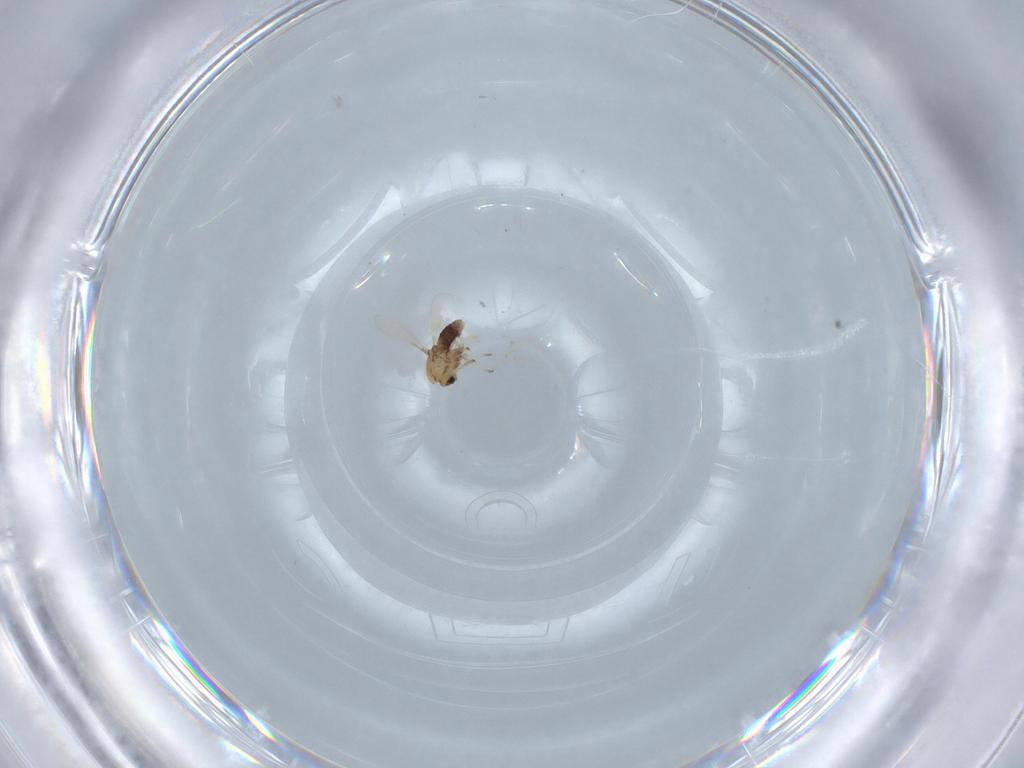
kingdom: Animalia
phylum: Arthropoda
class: Insecta
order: Diptera
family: Chironomidae
